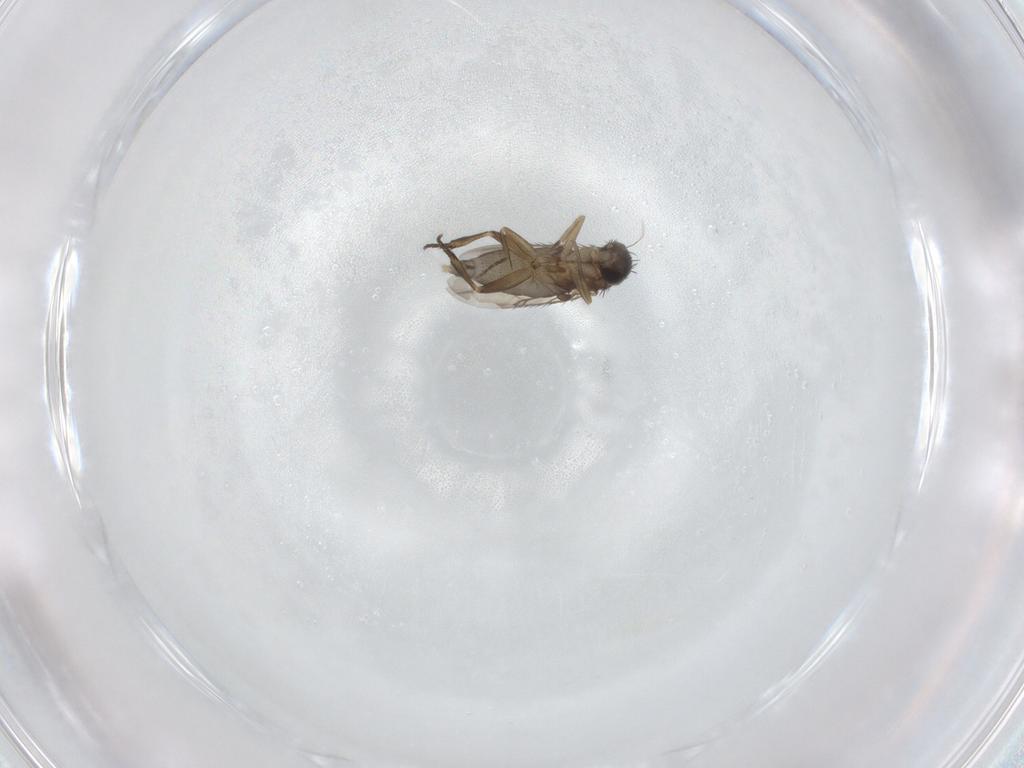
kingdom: Animalia
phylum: Arthropoda
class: Insecta
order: Diptera
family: Phoridae
